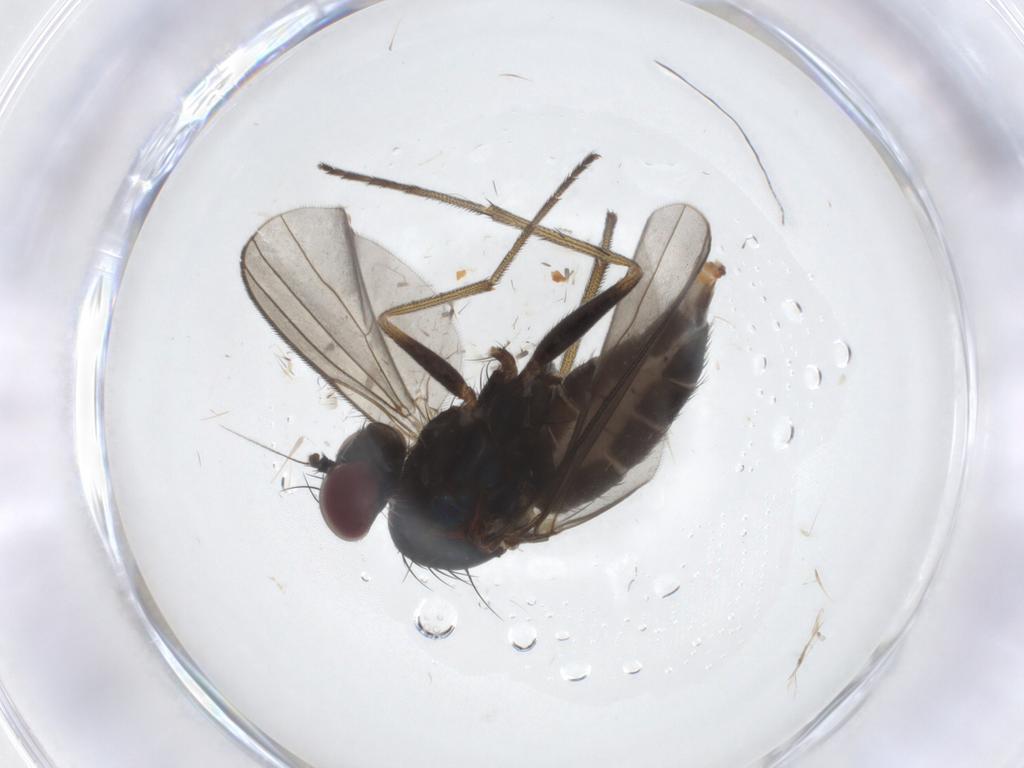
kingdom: Animalia
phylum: Arthropoda
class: Insecta
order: Diptera
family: Dolichopodidae
